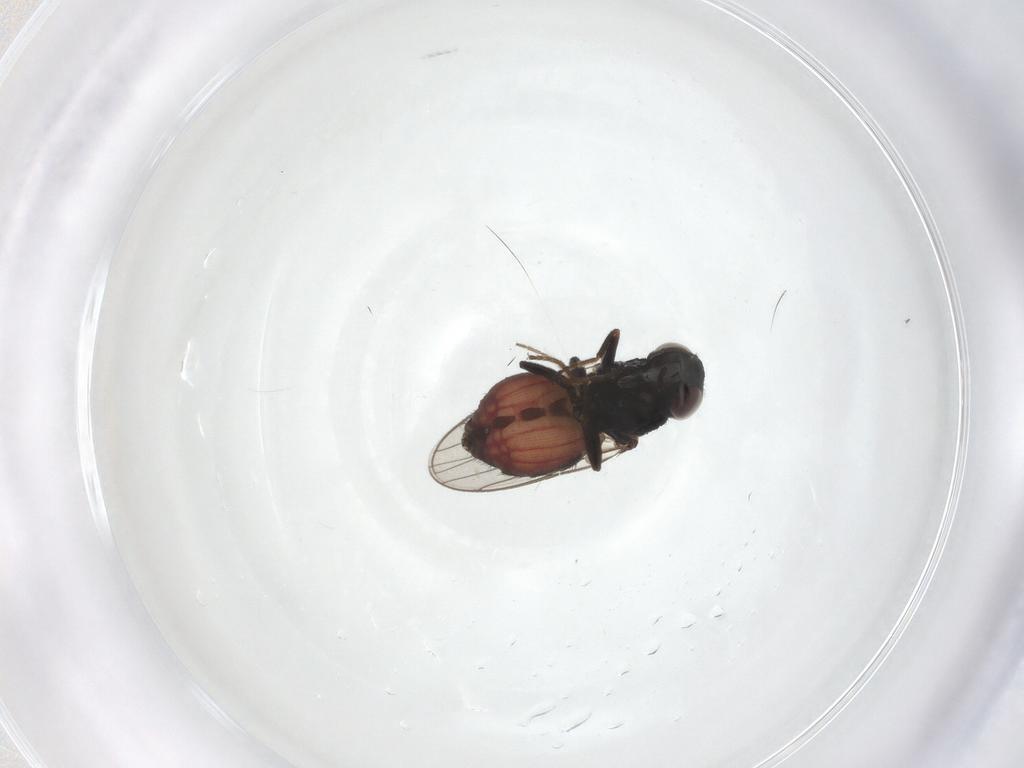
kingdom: Animalia
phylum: Arthropoda
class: Insecta
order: Diptera
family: Chloropidae
